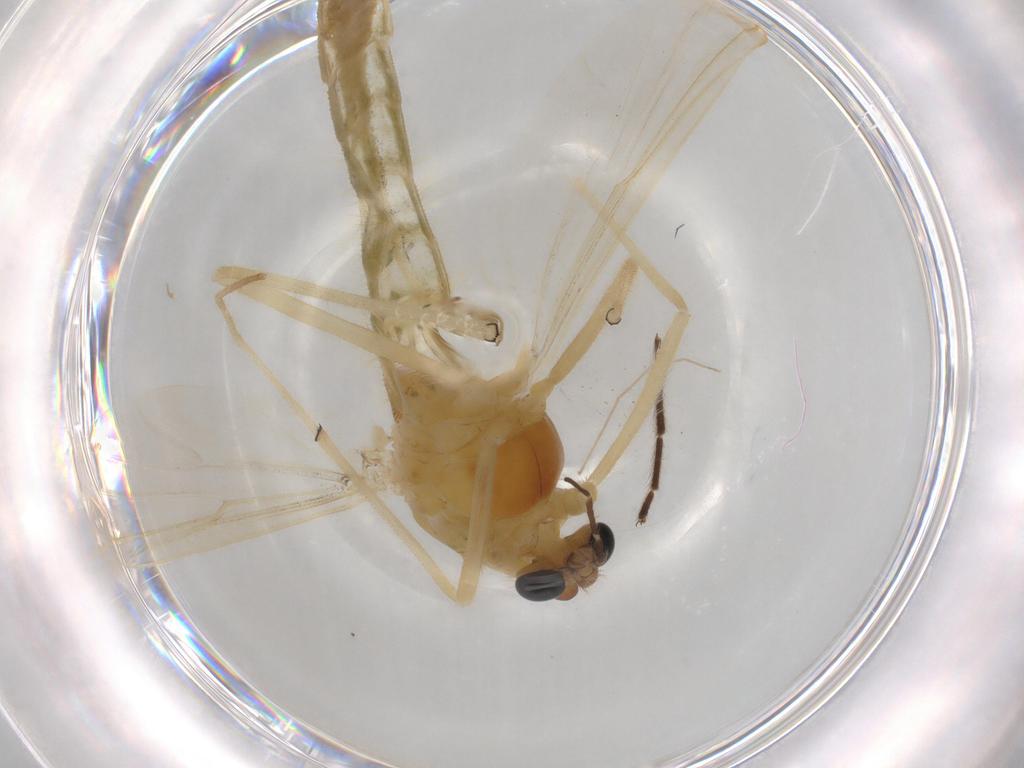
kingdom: Animalia
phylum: Arthropoda
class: Insecta
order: Diptera
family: Chironomidae
